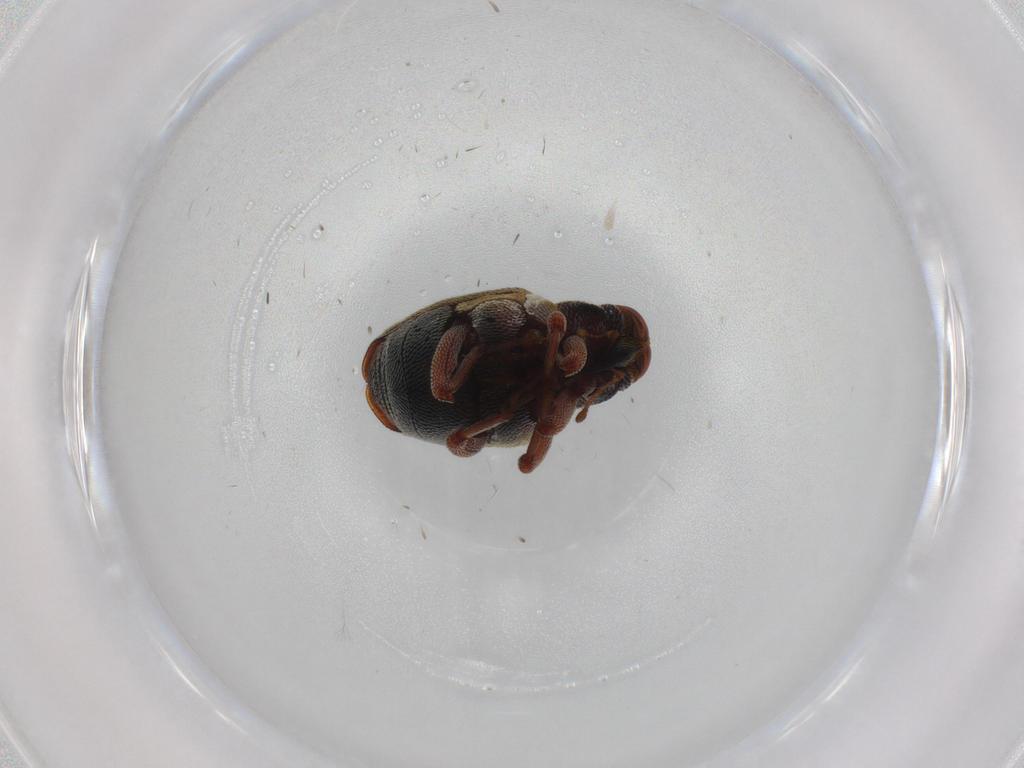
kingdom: Animalia
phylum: Arthropoda
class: Insecta
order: Coleoptera
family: Curculionidae
